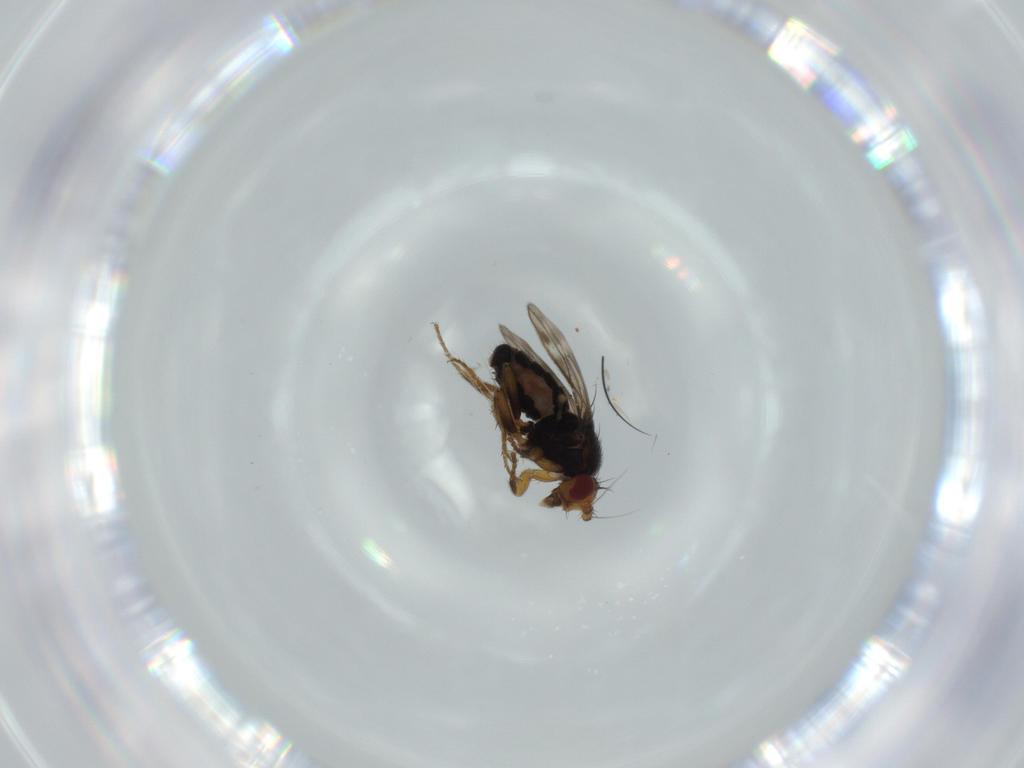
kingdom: Animalia
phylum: Arthropoda
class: Insecta
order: Diptera
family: Sphaeroceridae
